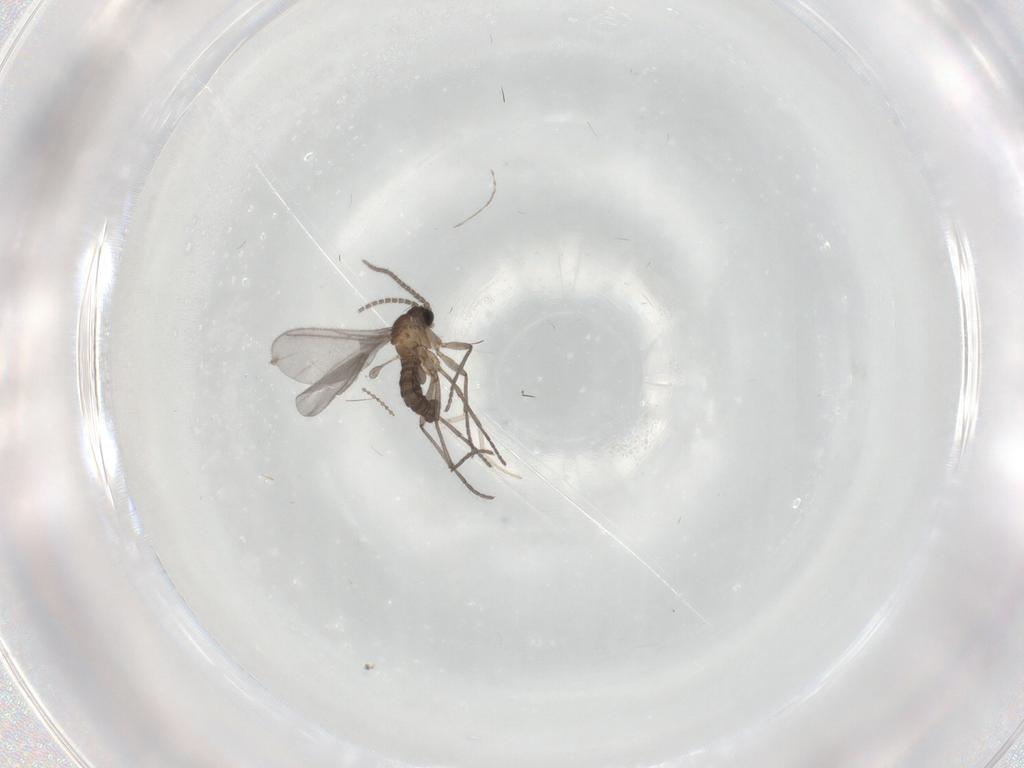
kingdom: Animalia
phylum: Arthropoda
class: Insecta
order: Diptera
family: Sciaridae
